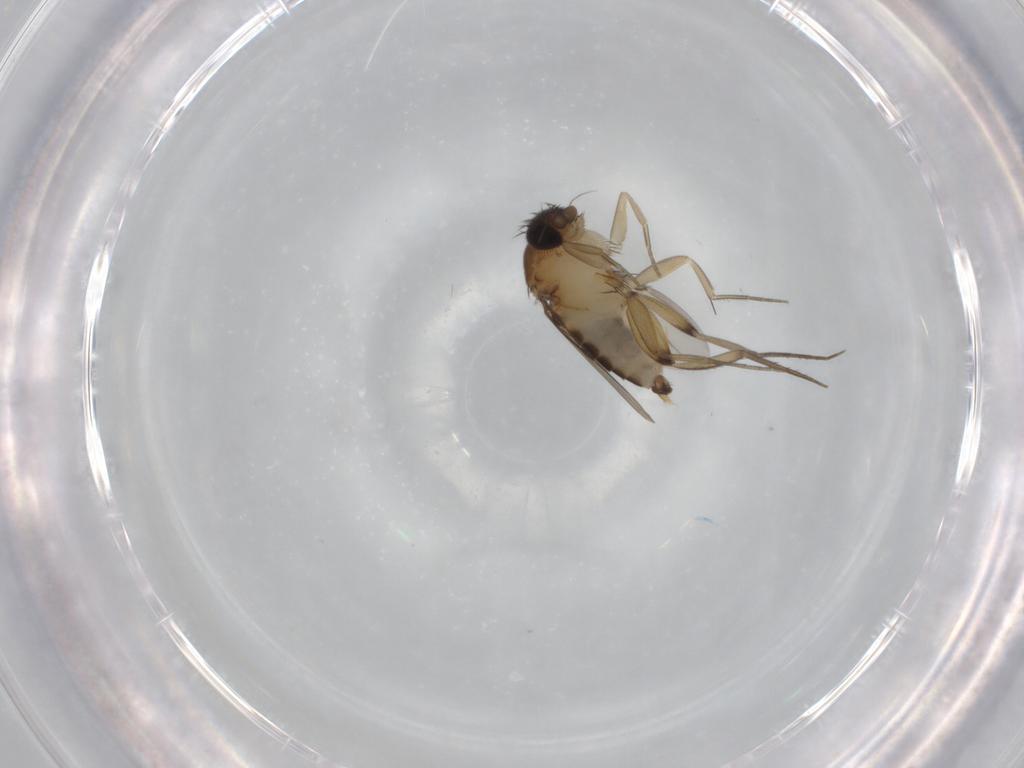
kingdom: Animalia
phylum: Arthropoda
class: Insecta
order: Diptera
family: Phoridae
